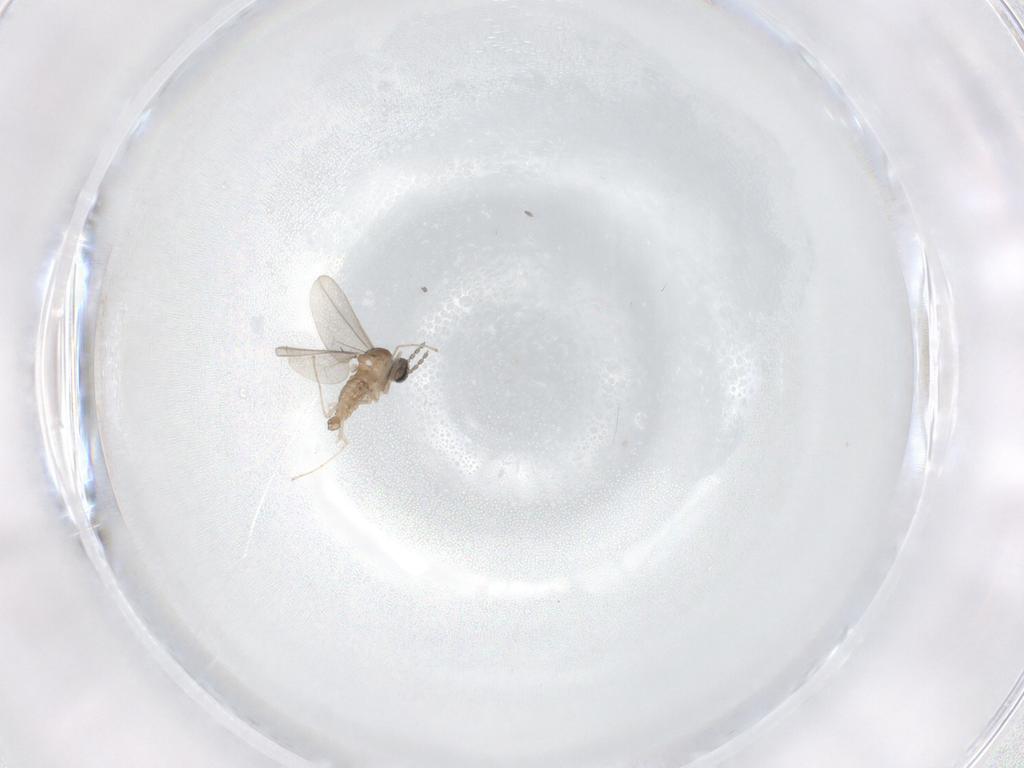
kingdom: Animalia
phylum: Arthropoda
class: Insecta
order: Diptera
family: Cecidomyiidae
